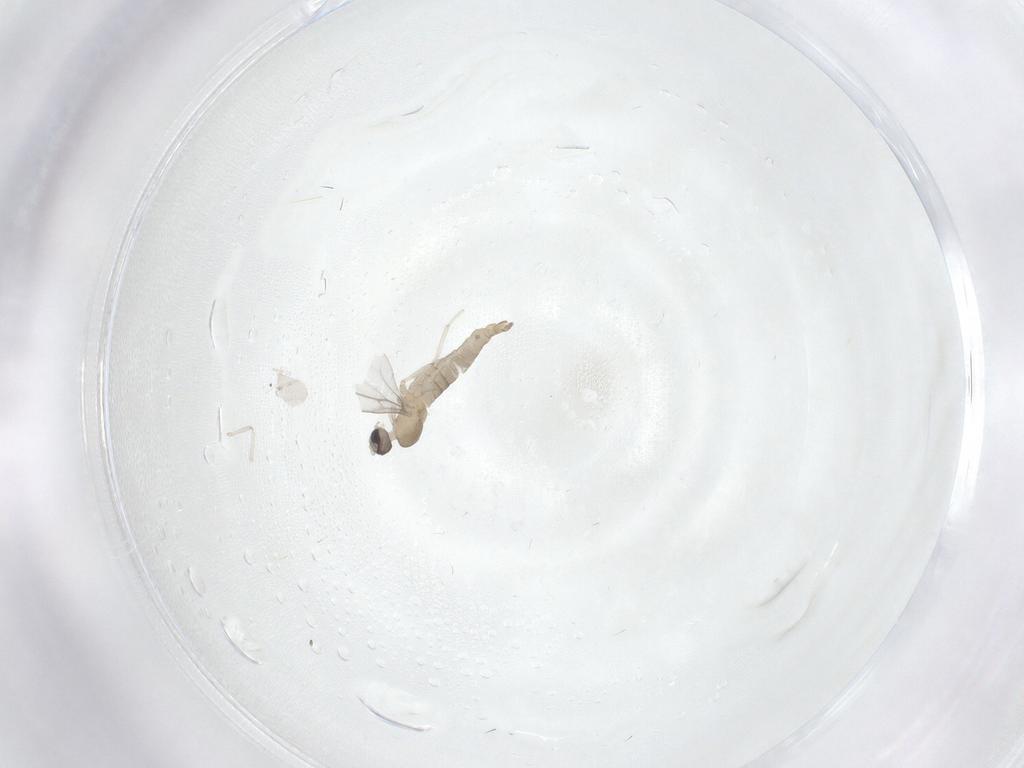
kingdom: Animalia
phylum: Arthropoda
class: Insecta
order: Diptera
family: Cecidomyiidae
